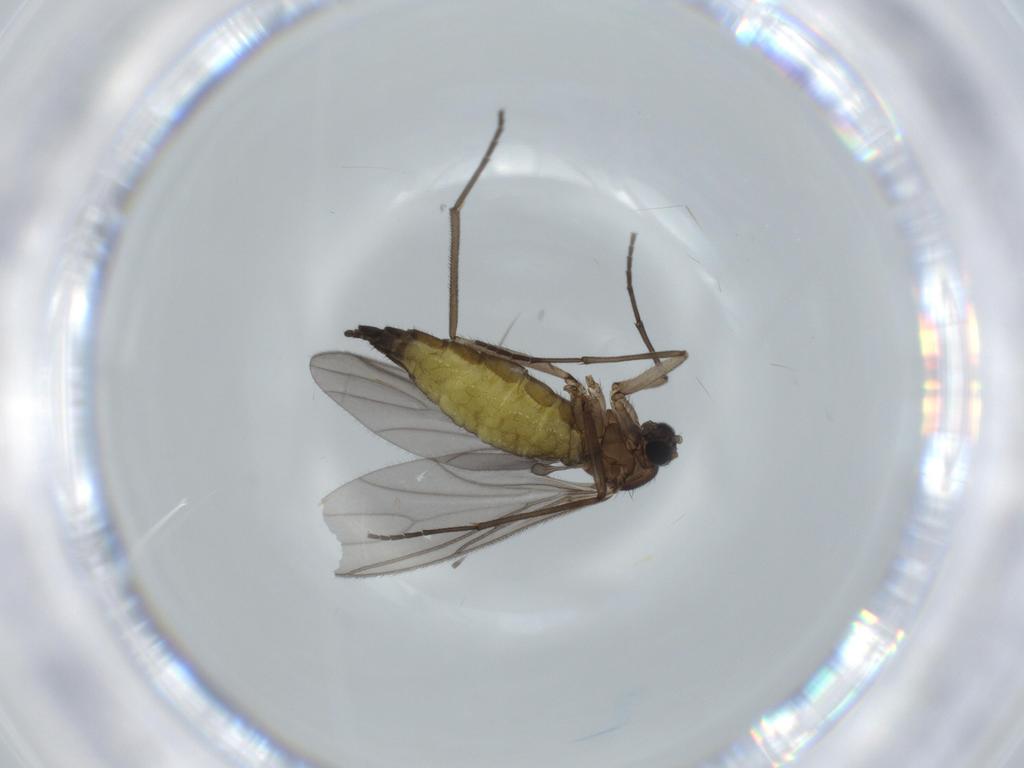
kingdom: Animalia
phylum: Arthropoda
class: Insecta
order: Diptera
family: Sciaridae
